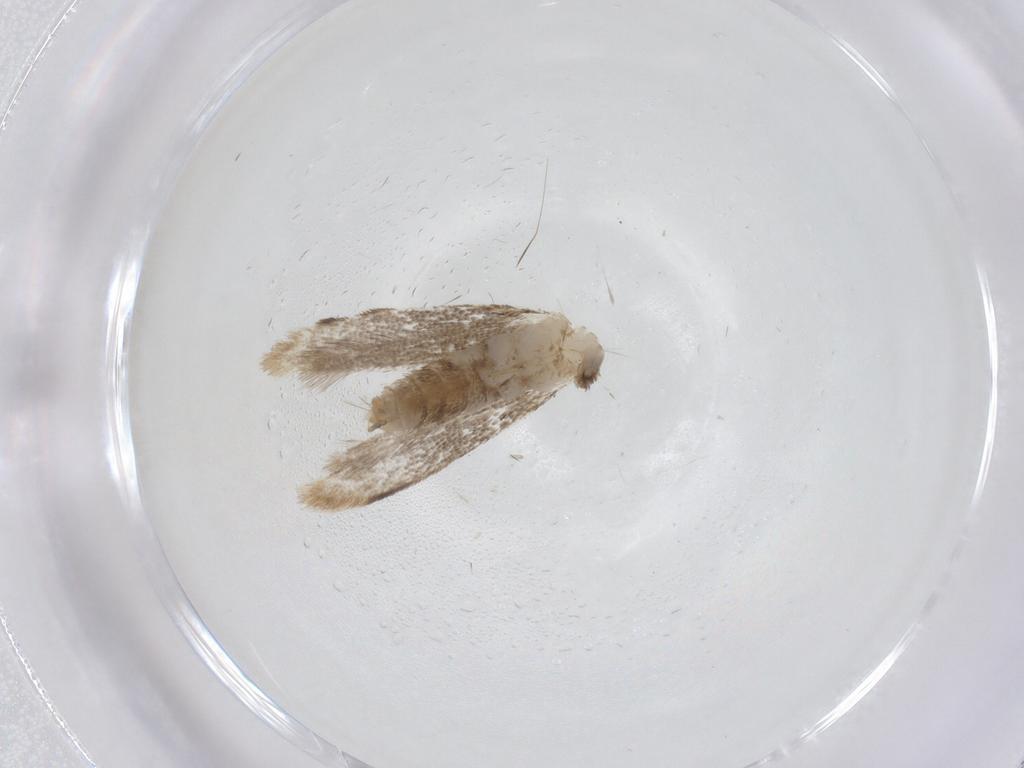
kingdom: Animalia
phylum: Arthropoda
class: Insecta
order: Lepidoptera
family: Dryadaulidae
